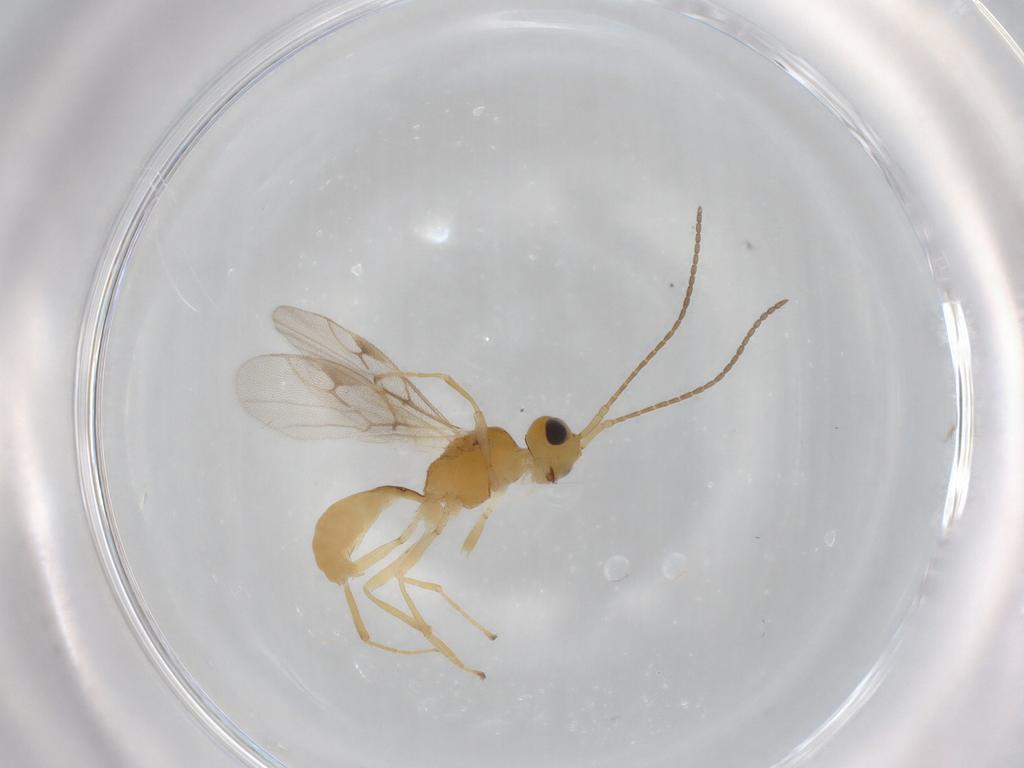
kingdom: Animalia
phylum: Arthropoda
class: Insecta
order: Hymenoptera
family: Braconidae
